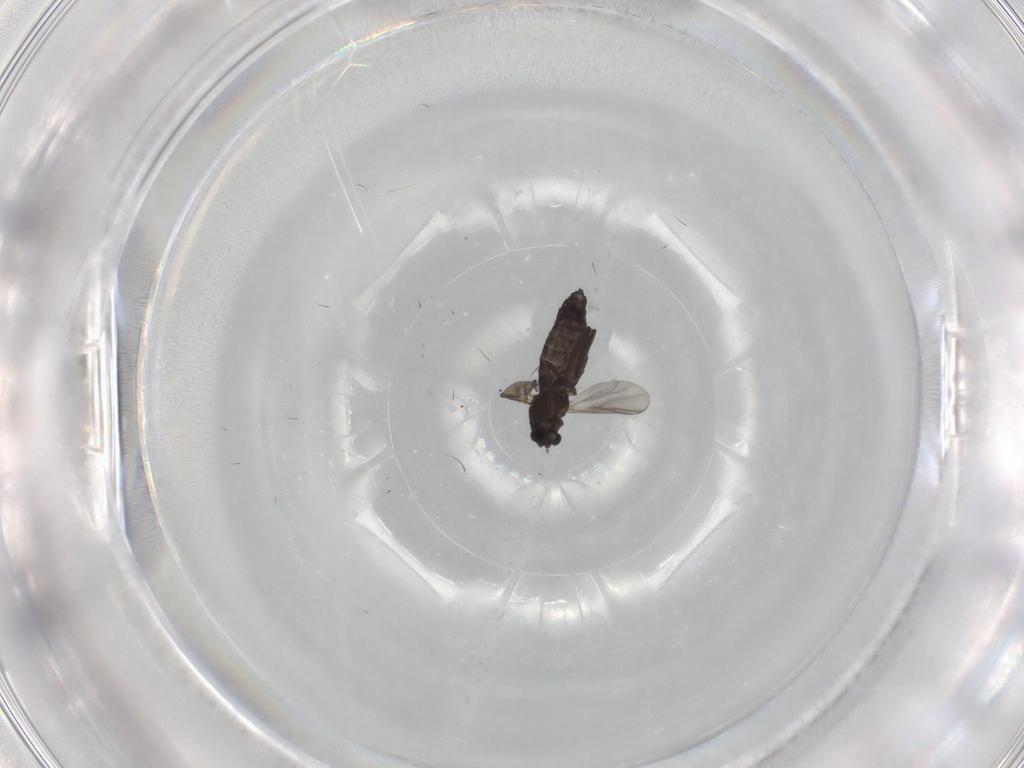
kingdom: Animalia
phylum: Arthropoda
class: Insecta
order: Diptera
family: Chironomidae
